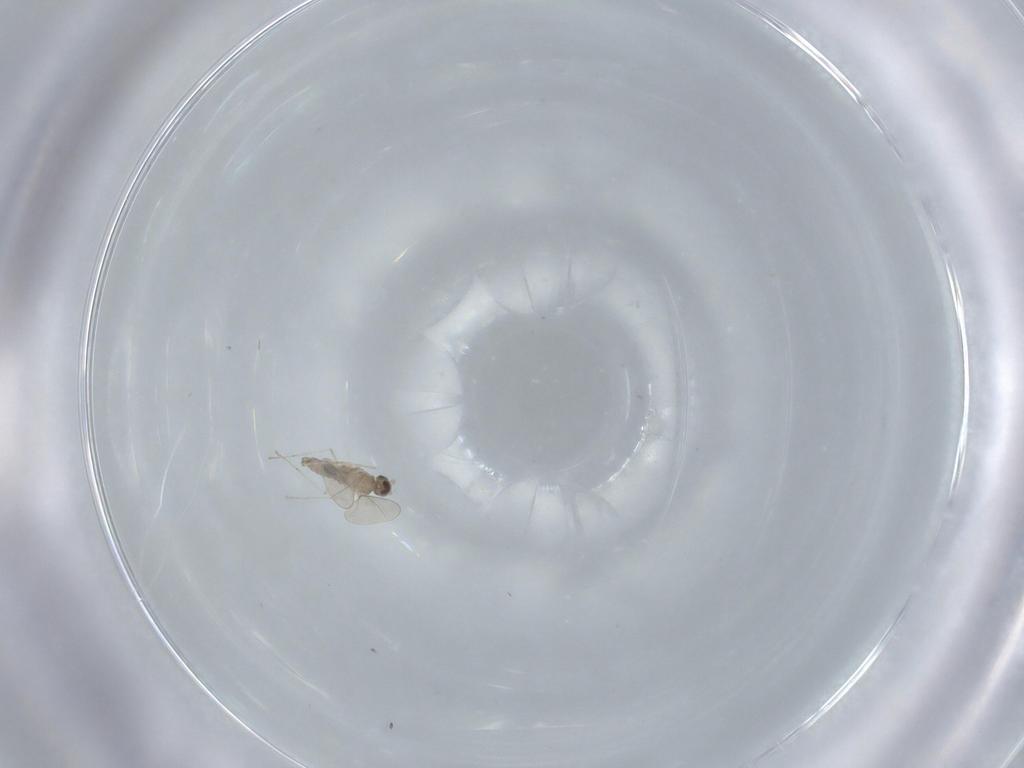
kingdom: Animalia
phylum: Arthropoda
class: Insecta
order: Diptera
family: Cecidomyiidae
